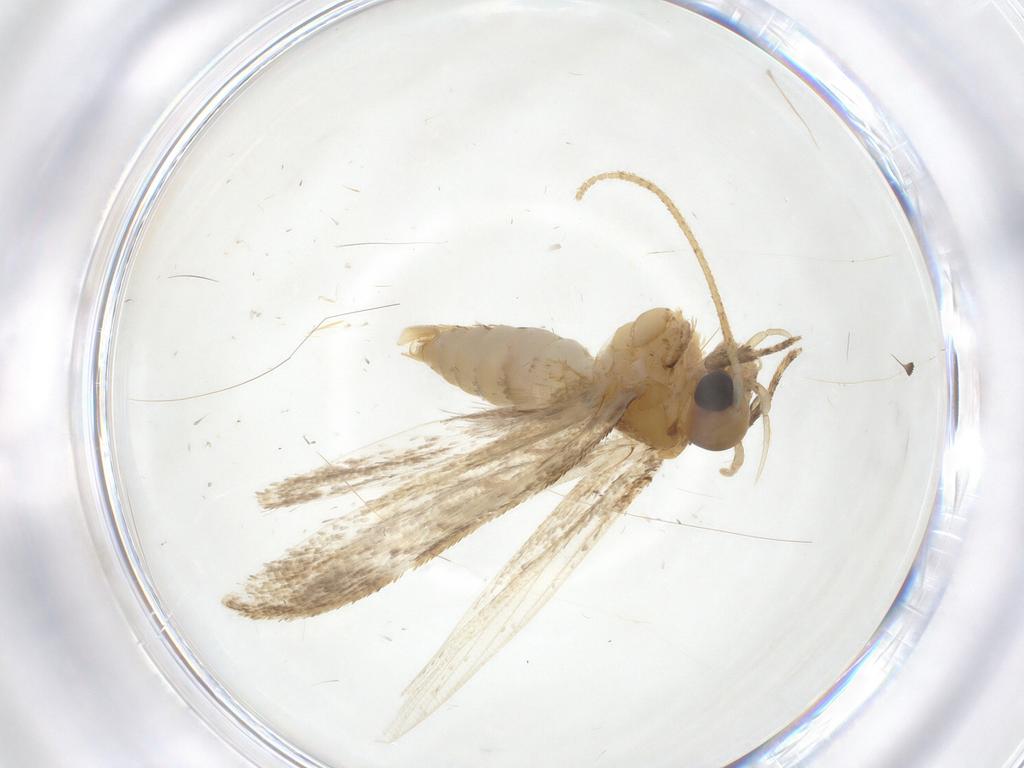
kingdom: Animalia
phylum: Arthropoda
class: Insecta
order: Lepidoptera
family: Oecophoridae
